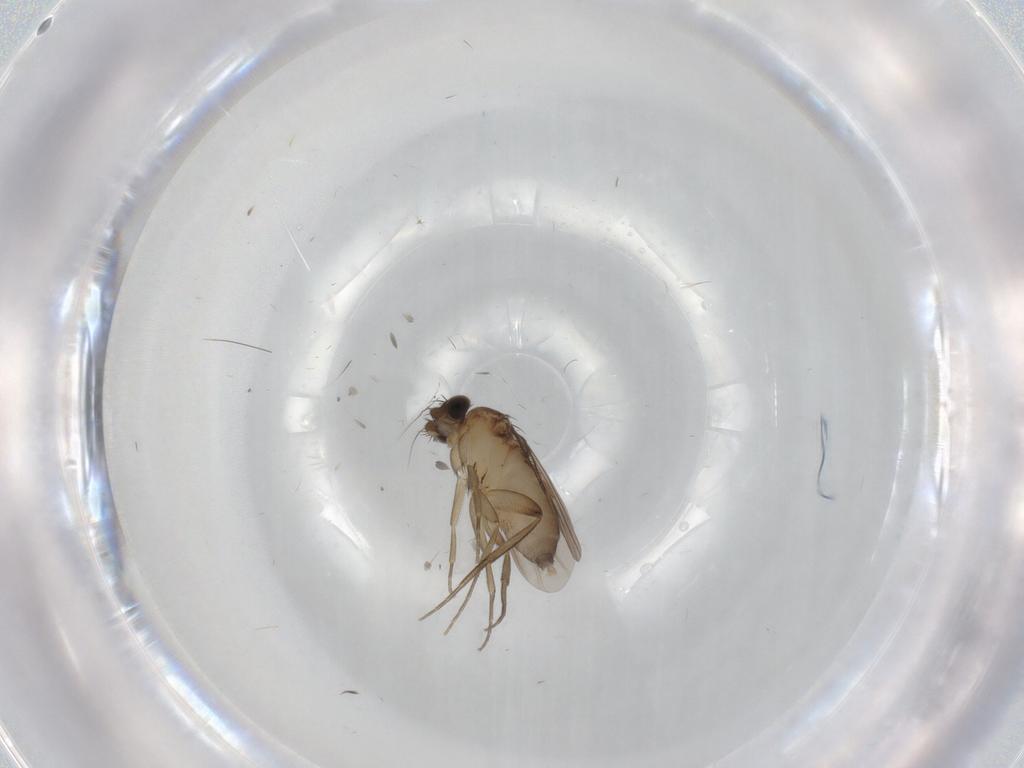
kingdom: Animalia
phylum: Arthropoda
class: Insecta
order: Diptera
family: Phoridae
